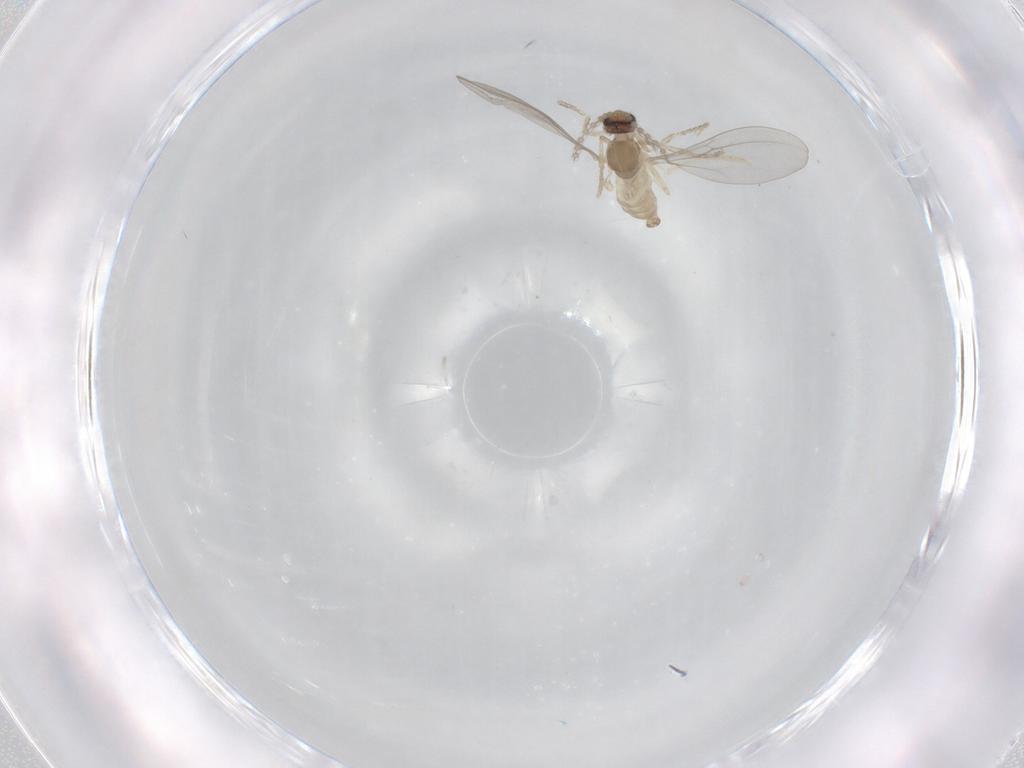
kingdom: Animalia
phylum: Arthropoda
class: Insecta
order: Diptera
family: Cecidomyiidae
